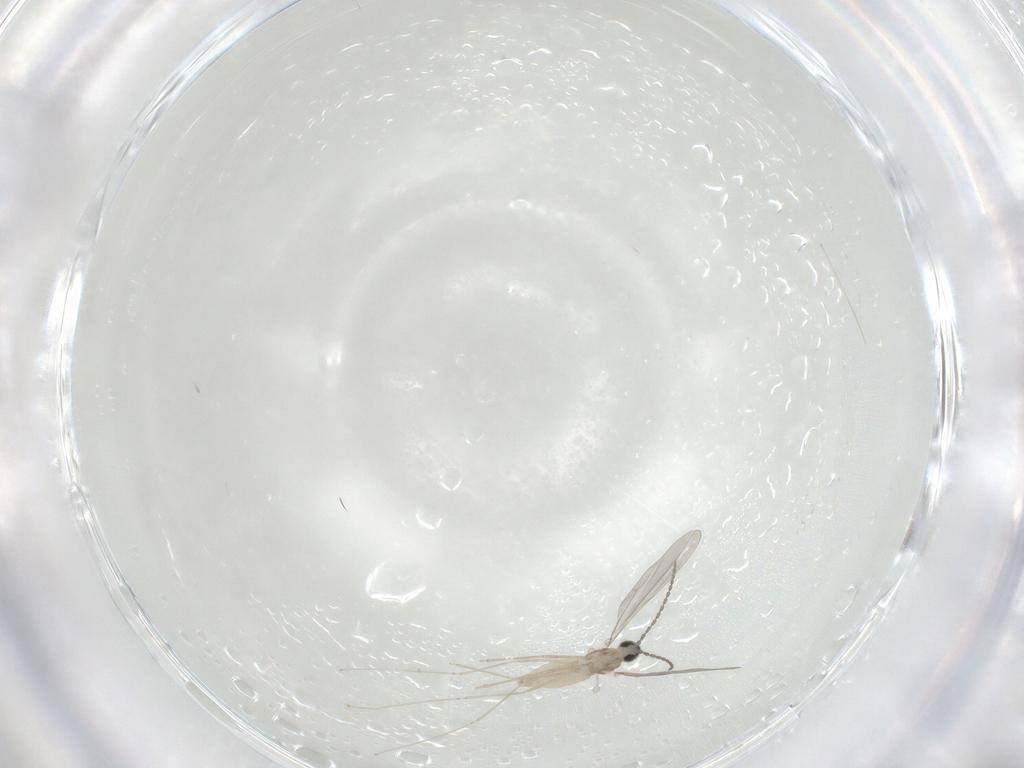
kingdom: Animalia
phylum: Arthropoda
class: Insecta
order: Diptera
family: Cecidomyiidae
